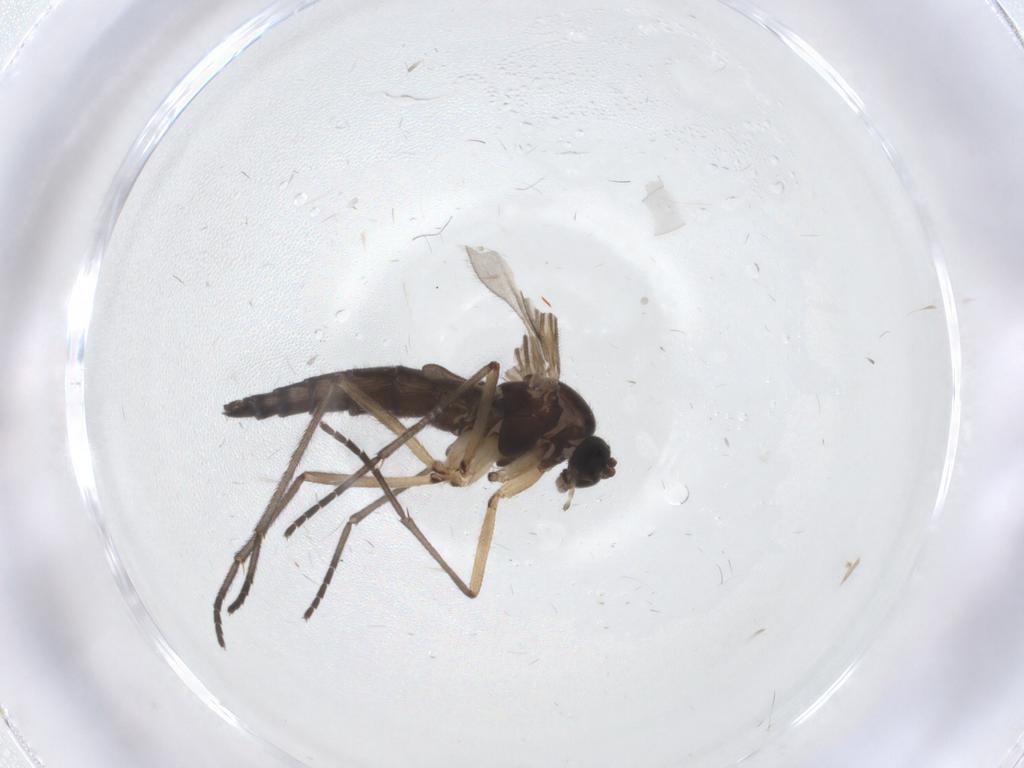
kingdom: Animalia
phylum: Arthropoda
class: Insecta
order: Diptera
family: Sciaridae
